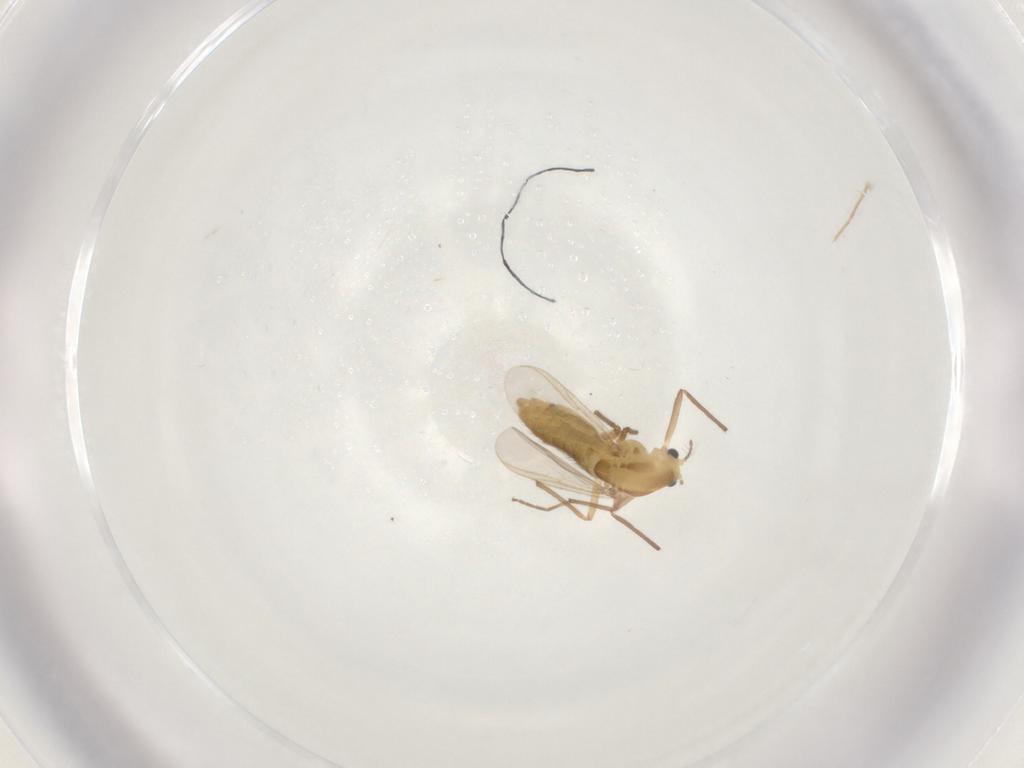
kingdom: Animalia
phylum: Arthropoda
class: Insecta
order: Diptera
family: Chironomidae
